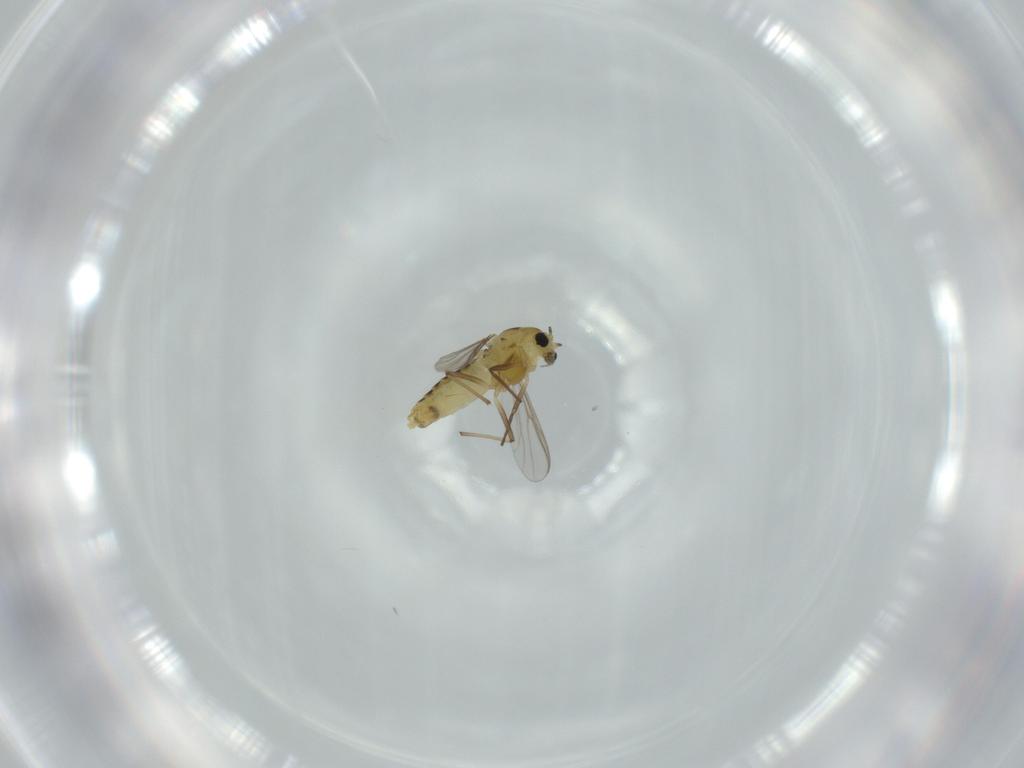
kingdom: Animalia
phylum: Arthropoda
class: Insecta
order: Diptera
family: Chironomidae
